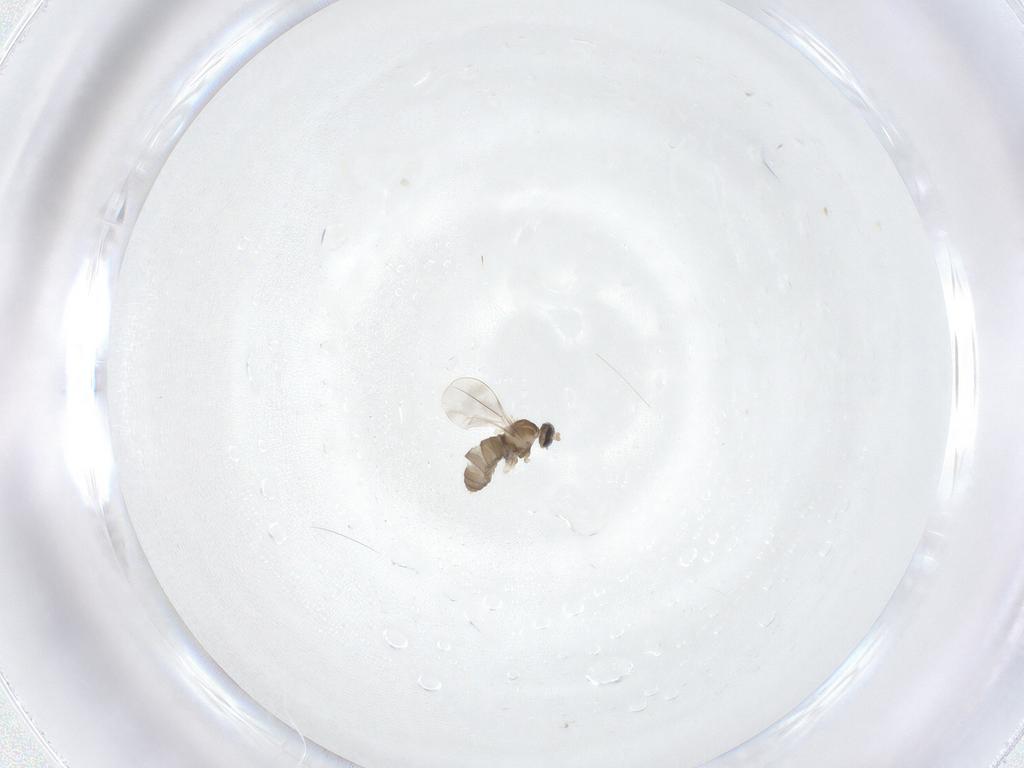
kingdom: Animalia
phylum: Arthropoda
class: Insecta
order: Diptera
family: Cecidomyiidae
